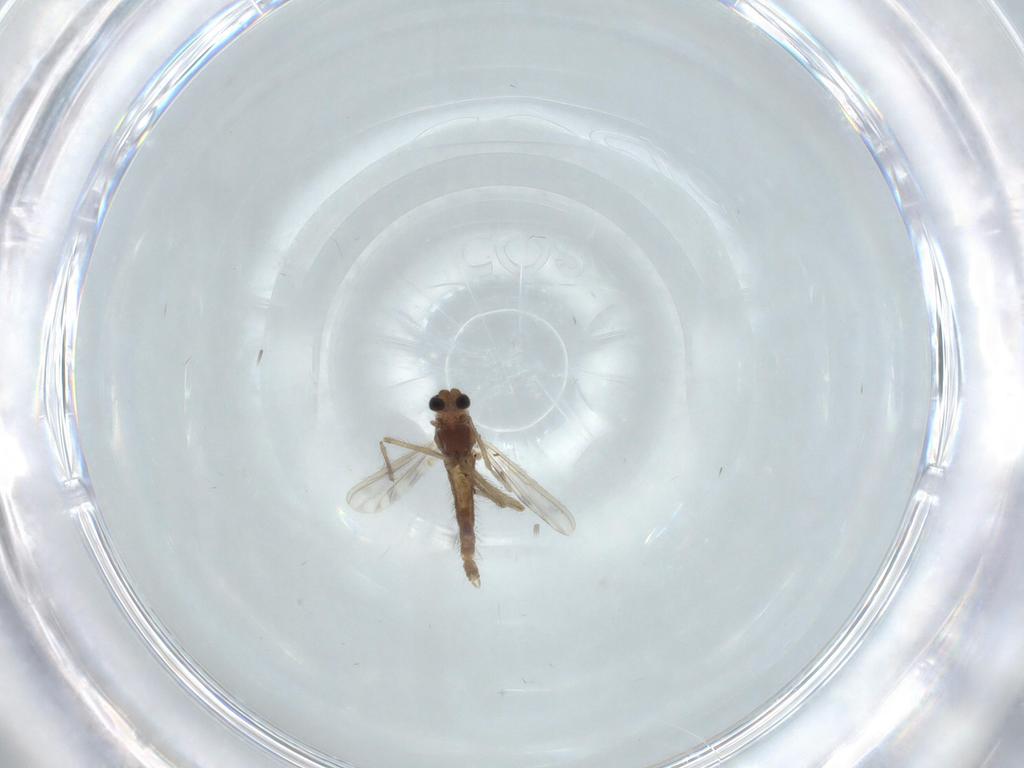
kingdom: Animalia
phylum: Arthropoda
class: Insecta
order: Diptera
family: Chironomidae
